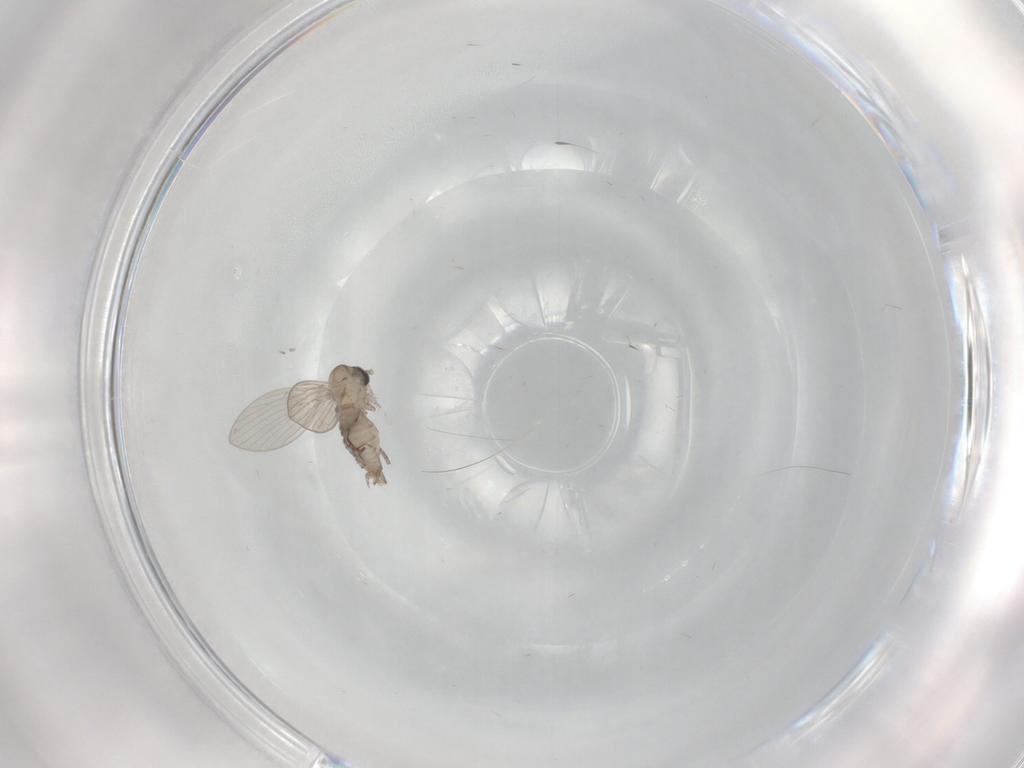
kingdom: Animalia
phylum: Arthropoda
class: Insecta
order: Diptera
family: Psychodidae
